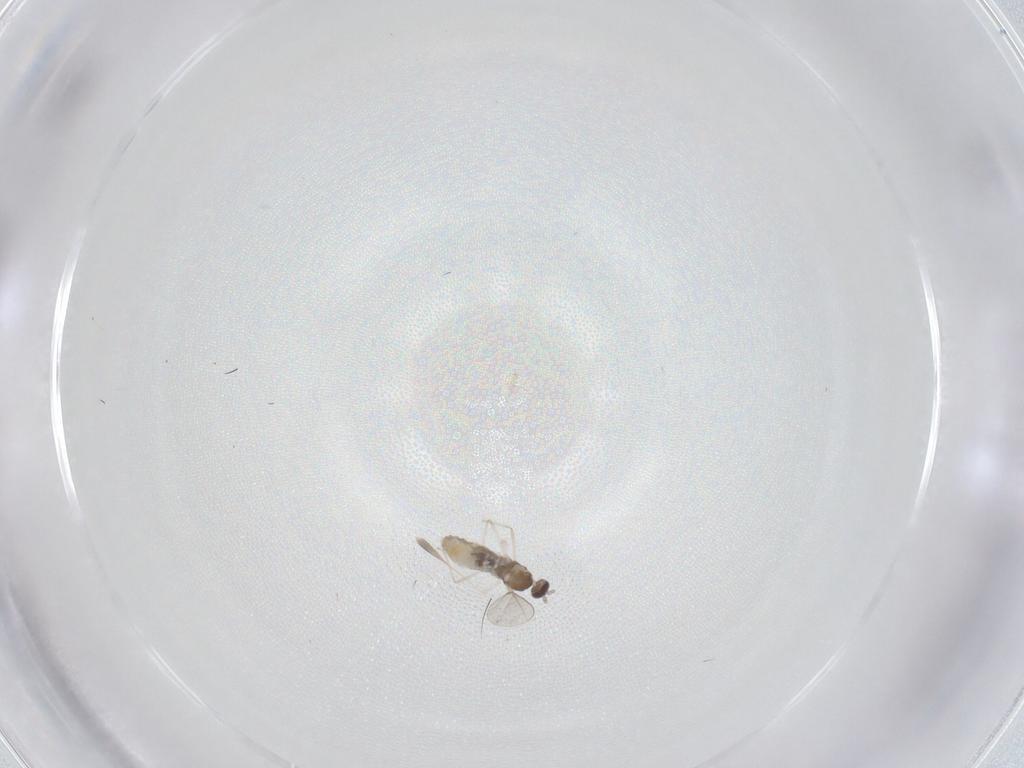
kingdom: Animalia
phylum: Arthropoda
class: Insecta
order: Diptera
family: Cecidomyiidae
